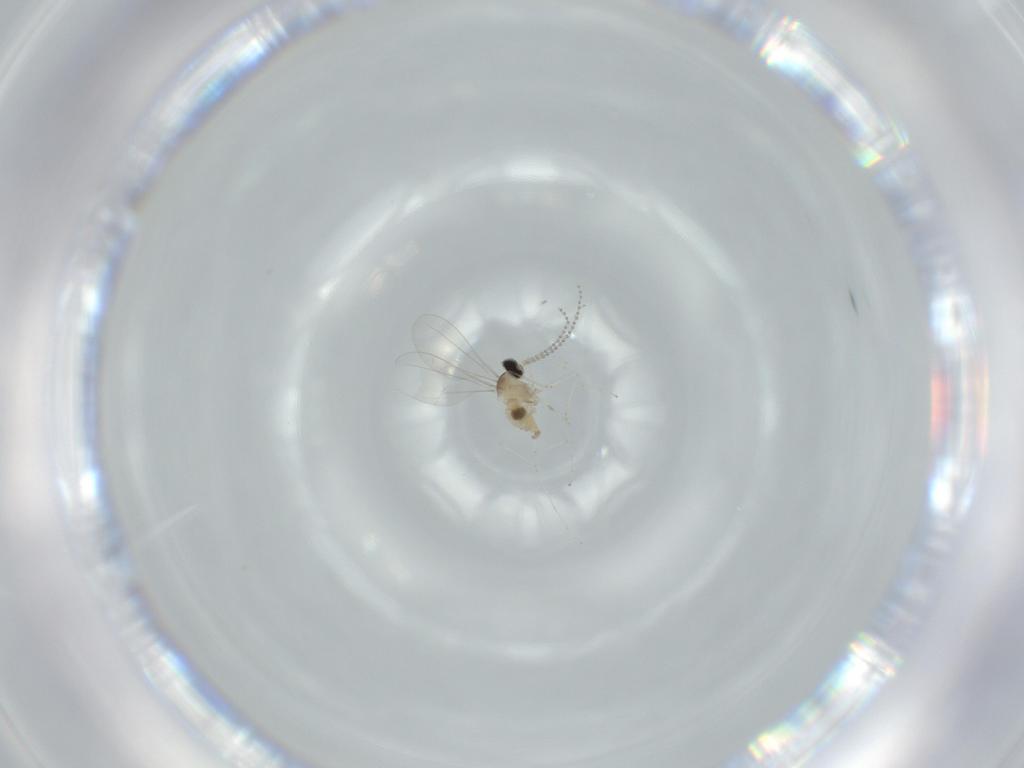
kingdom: Animalia
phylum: Arthropoda
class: Insecta
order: Diptera
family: Cecidomyiidae
